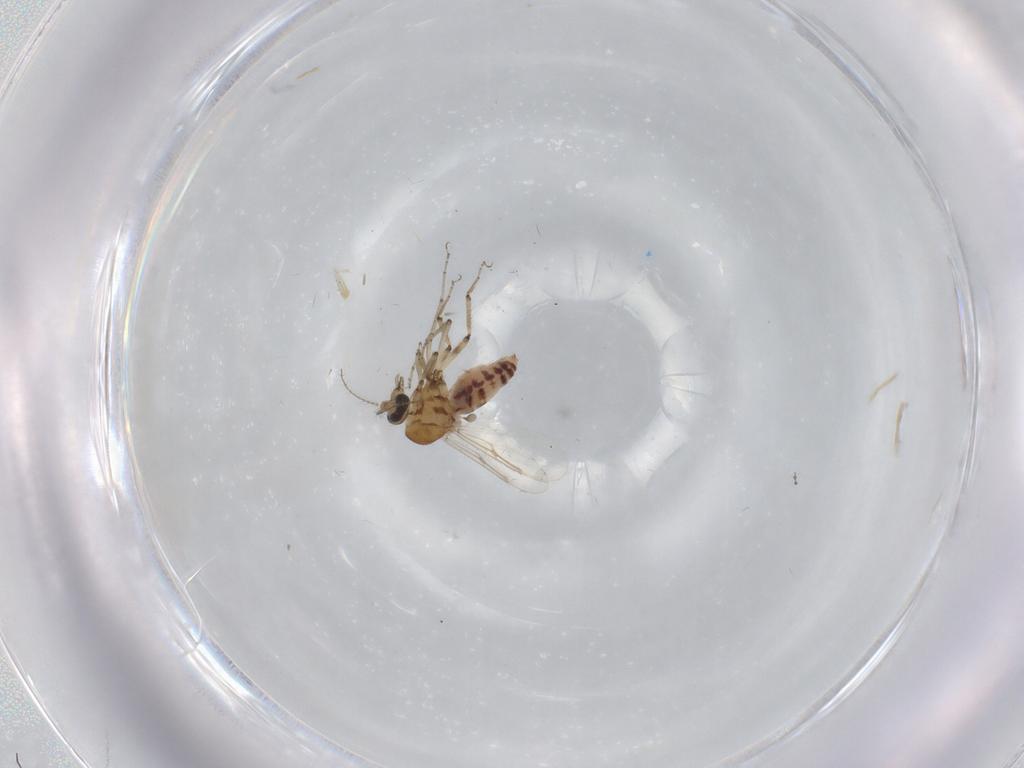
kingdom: Animalia
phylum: Arthropoda
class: Insecta
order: Diptera
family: Ceratopogonidae
